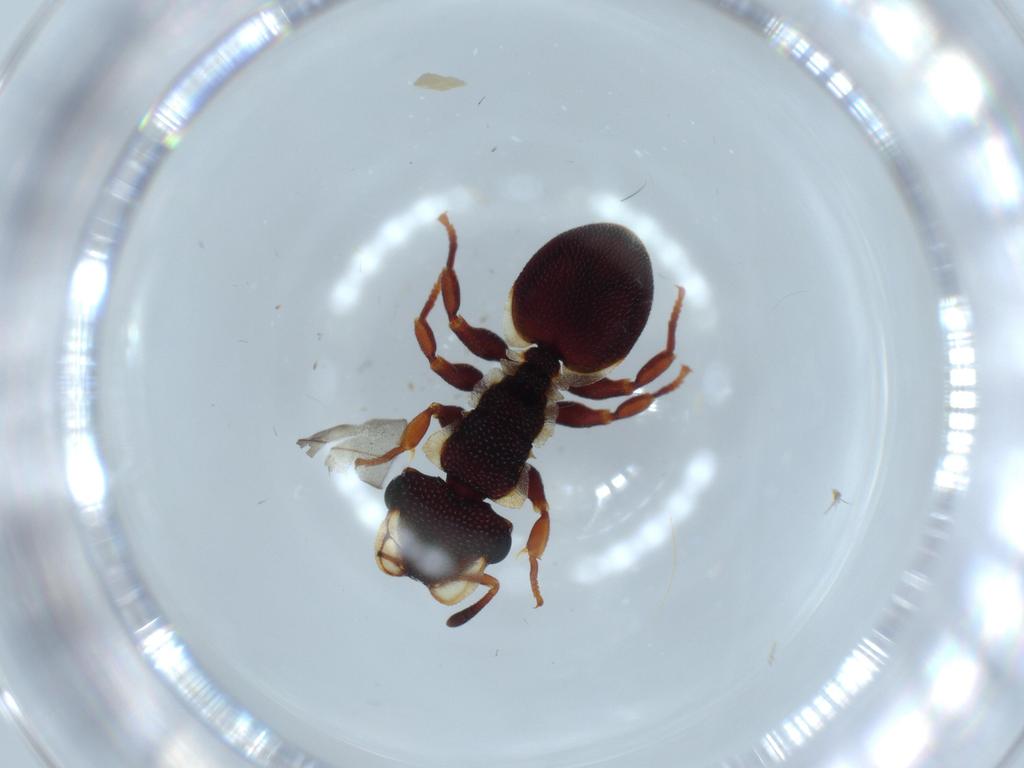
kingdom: Animalia
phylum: Arthropoda
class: Insecta
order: Hymenoptera
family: Formicidae
